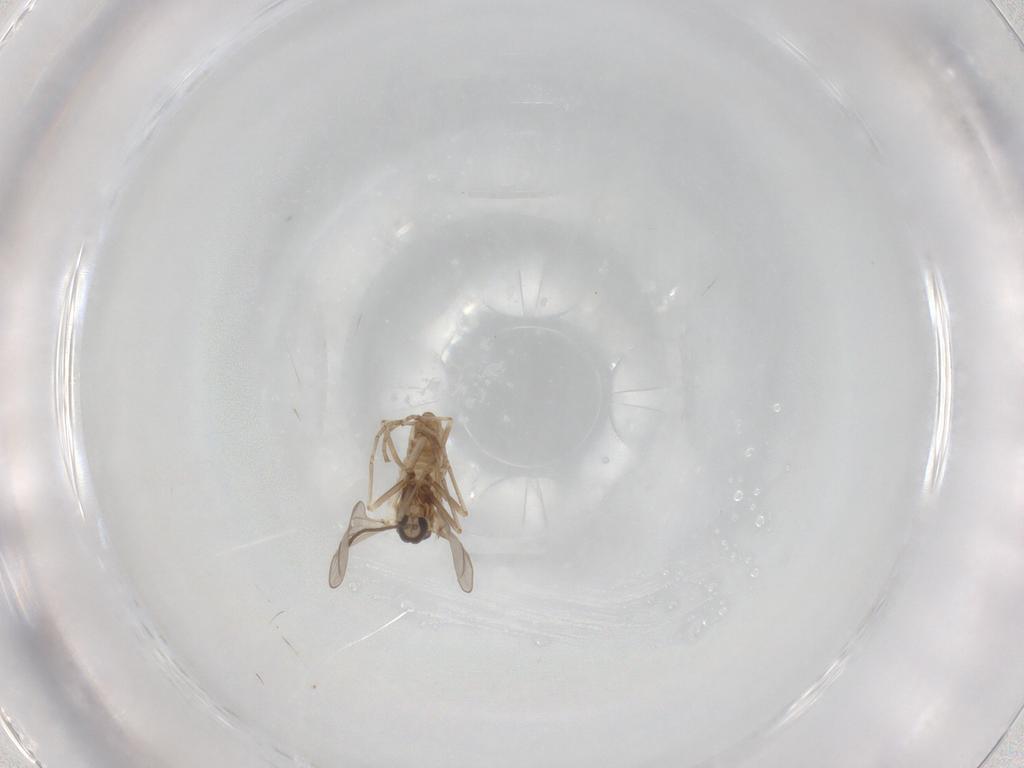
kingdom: Animalia
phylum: Arthropoda
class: Insecta
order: Diptera
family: Cecidomyiidae
